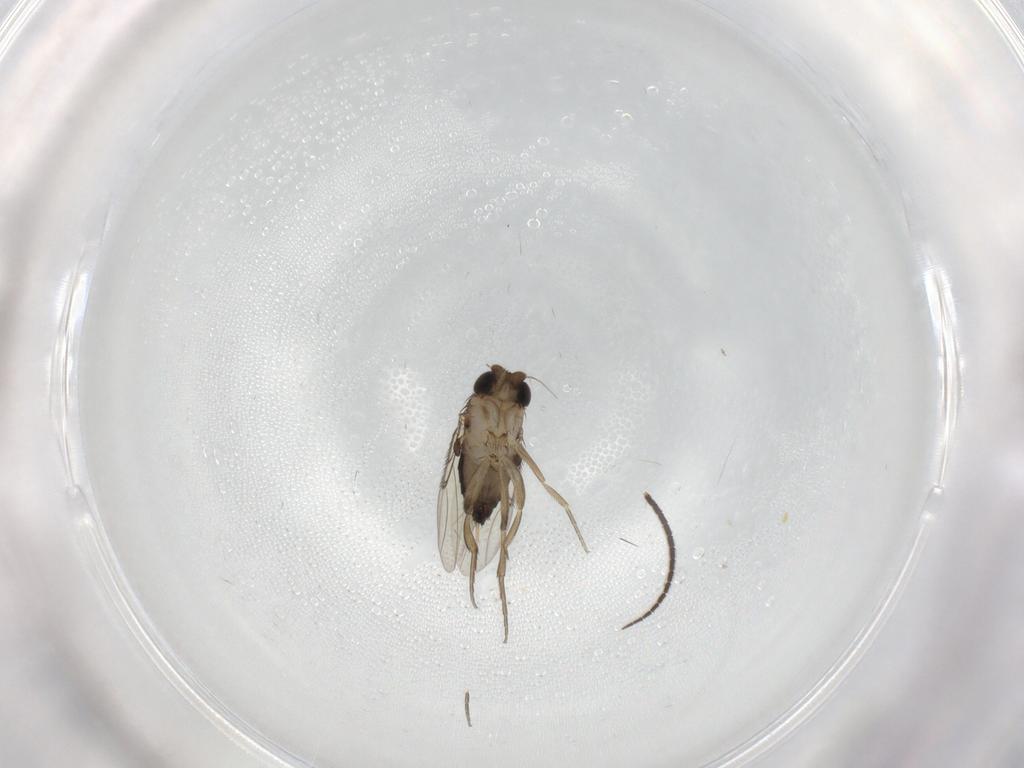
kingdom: Animalia
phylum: Arthropoda
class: Insecta
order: Diptera
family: Phoridae
